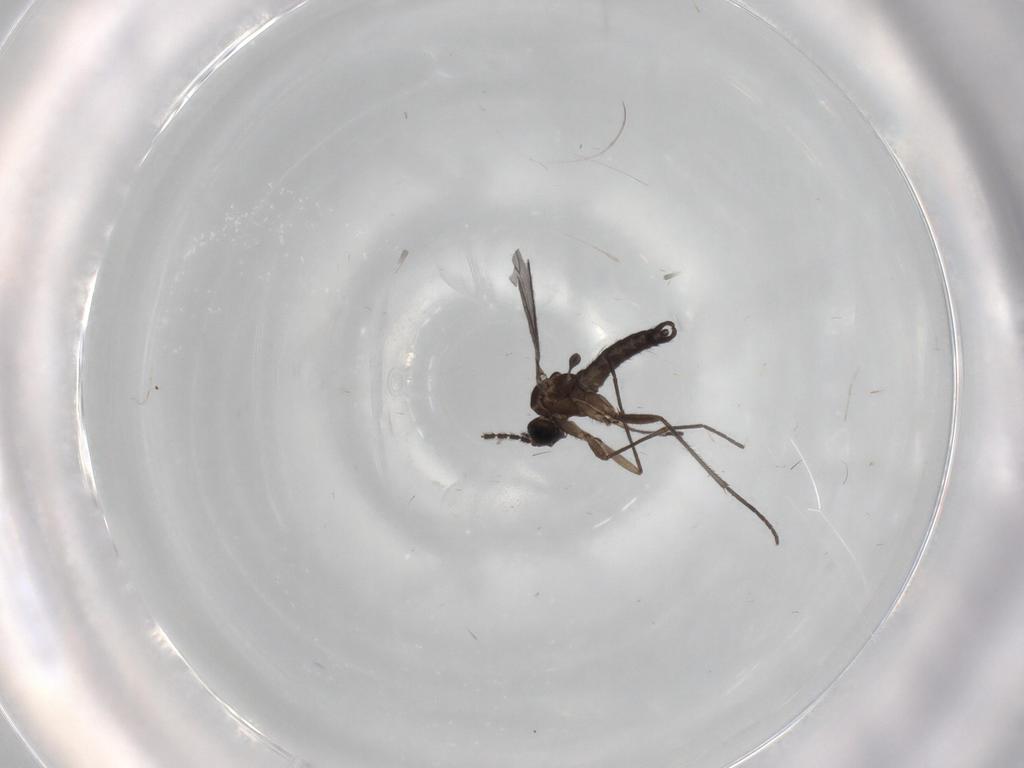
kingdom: Animalia
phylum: Arthropoda
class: Insecta
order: Diptera
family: Sciaridae
